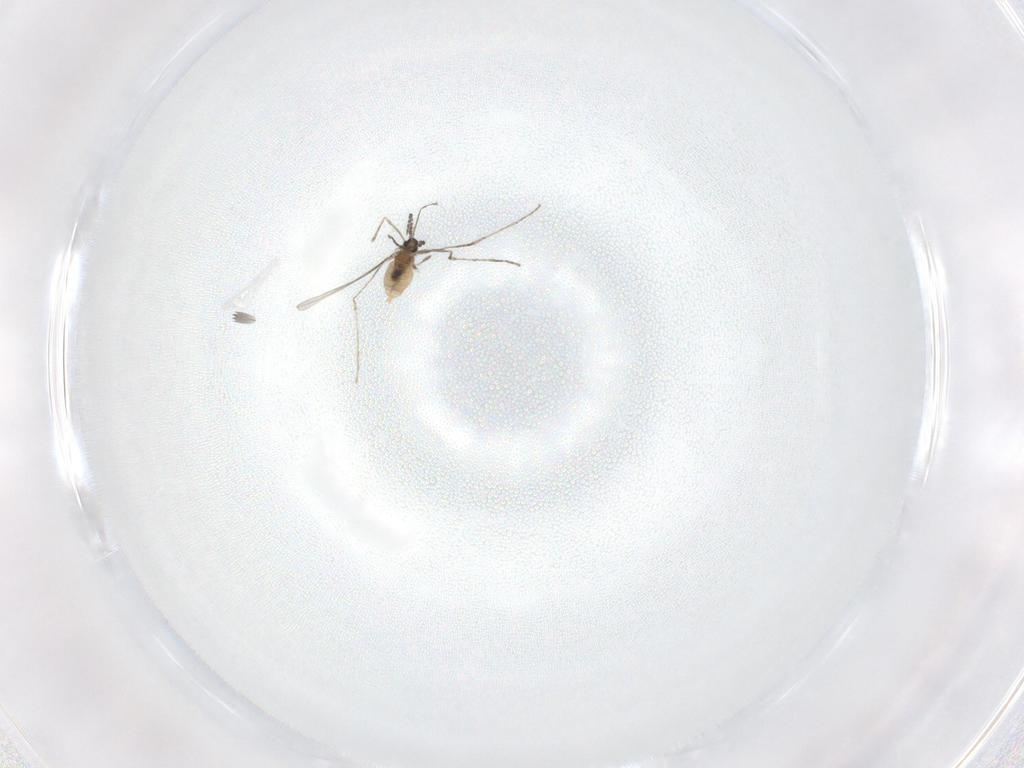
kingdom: Animalia
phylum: Arthropoda
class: Insecta
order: Diptera
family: Cecidomyiidae
